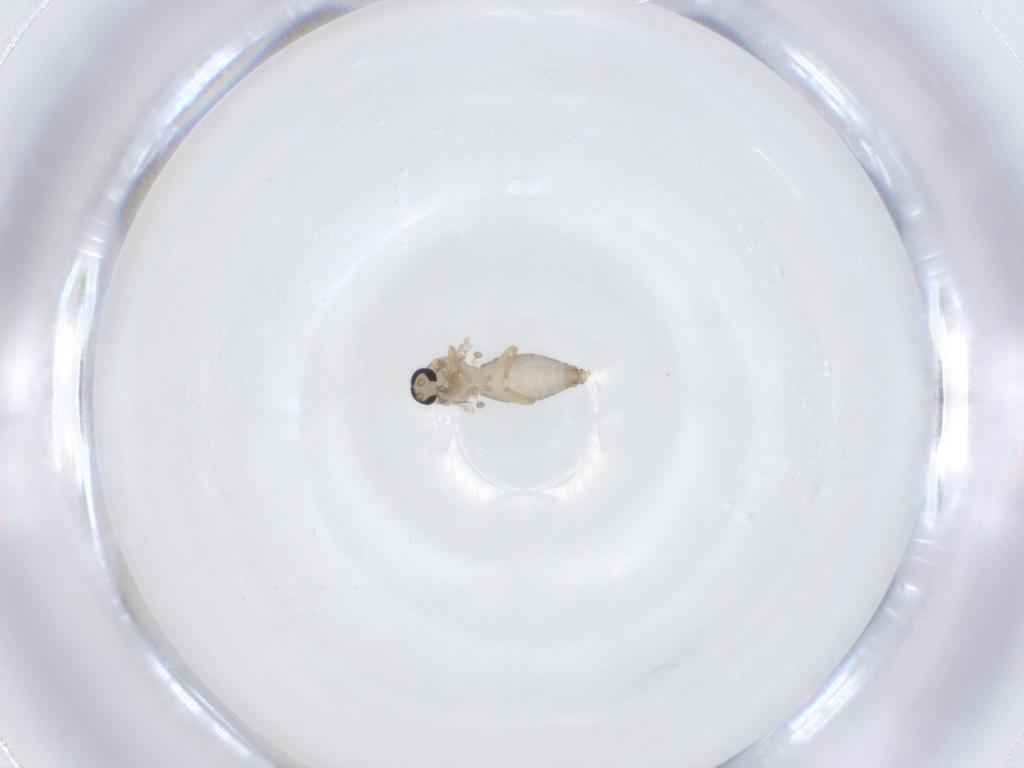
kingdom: Animalia
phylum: Arthropoda
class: Insecta
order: Diptera
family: Ceratopogonidae
